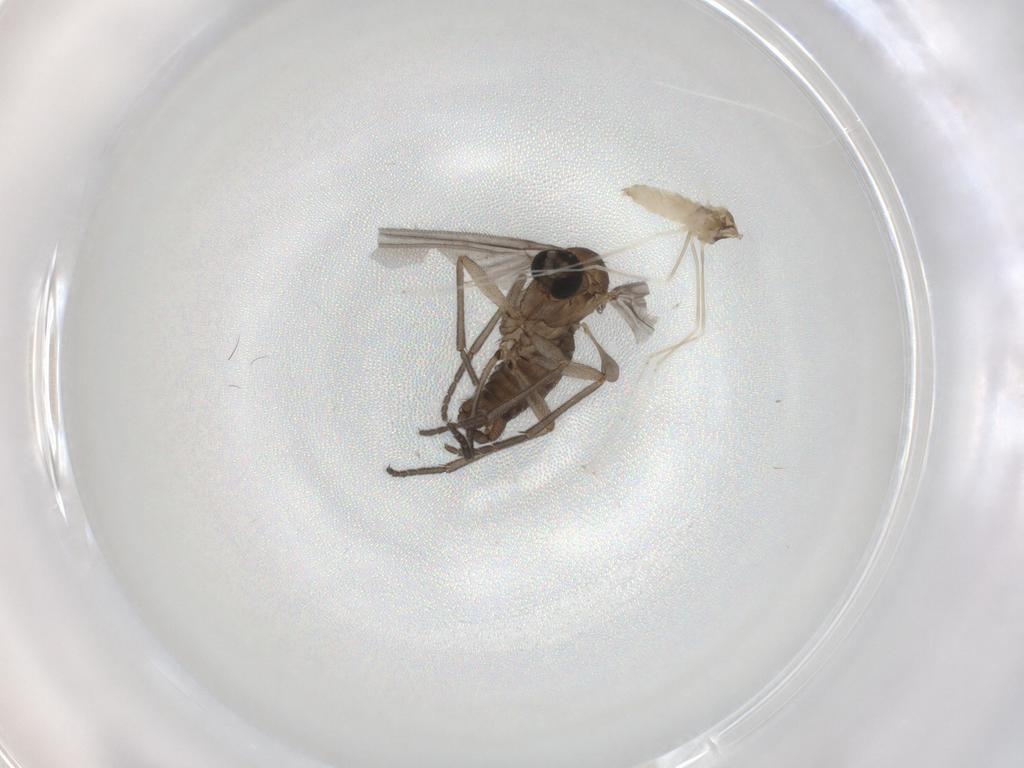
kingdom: Animalia
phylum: Arthropoda
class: Insecta
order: Diptera
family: Sciaridae
